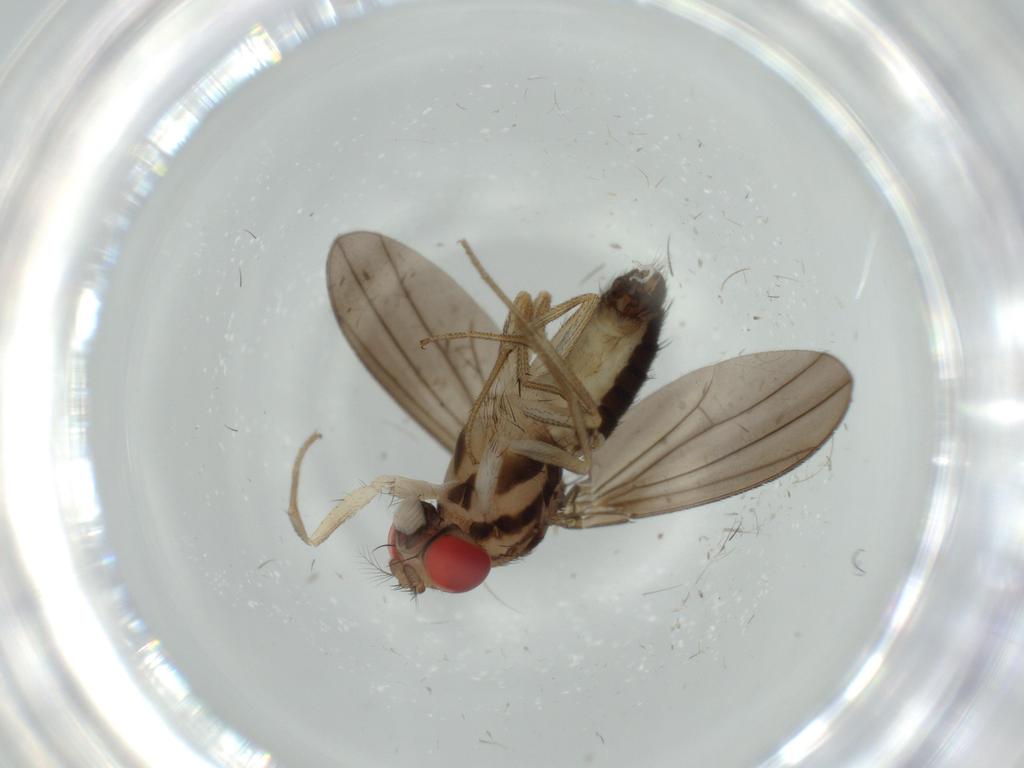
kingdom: Animalia
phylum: Arthropoda
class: Insecta
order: Diptera
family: Drosophilidae
